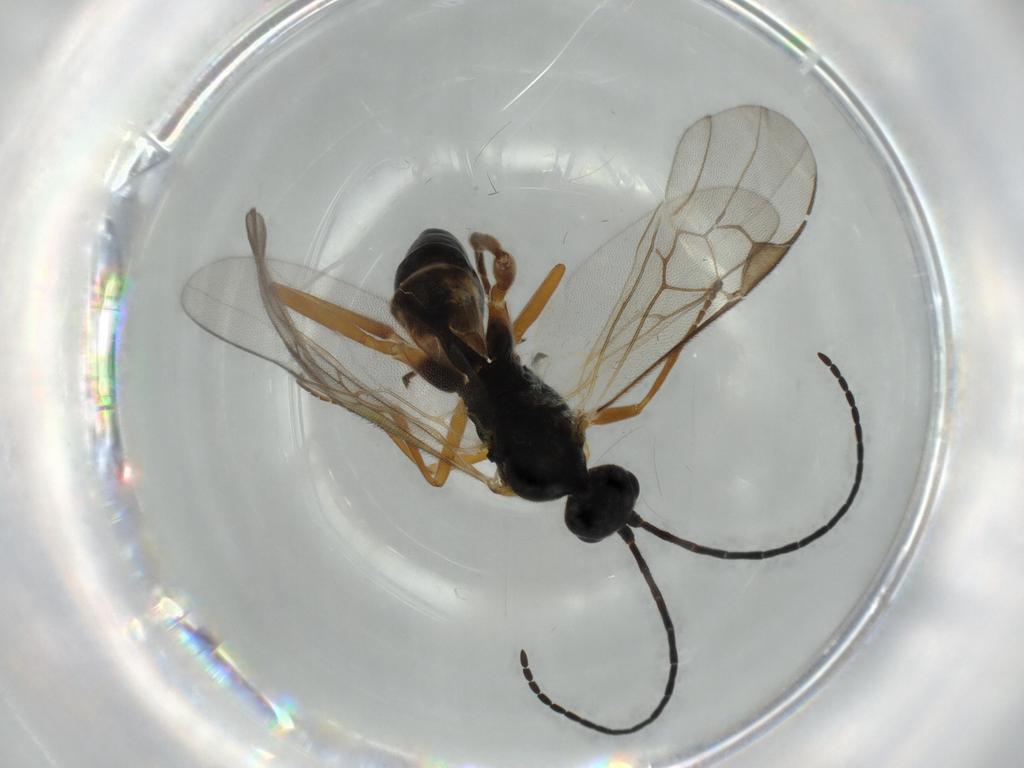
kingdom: Animalia
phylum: Arthropoda
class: Insecta
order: Hymenoptera
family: Braconidae
